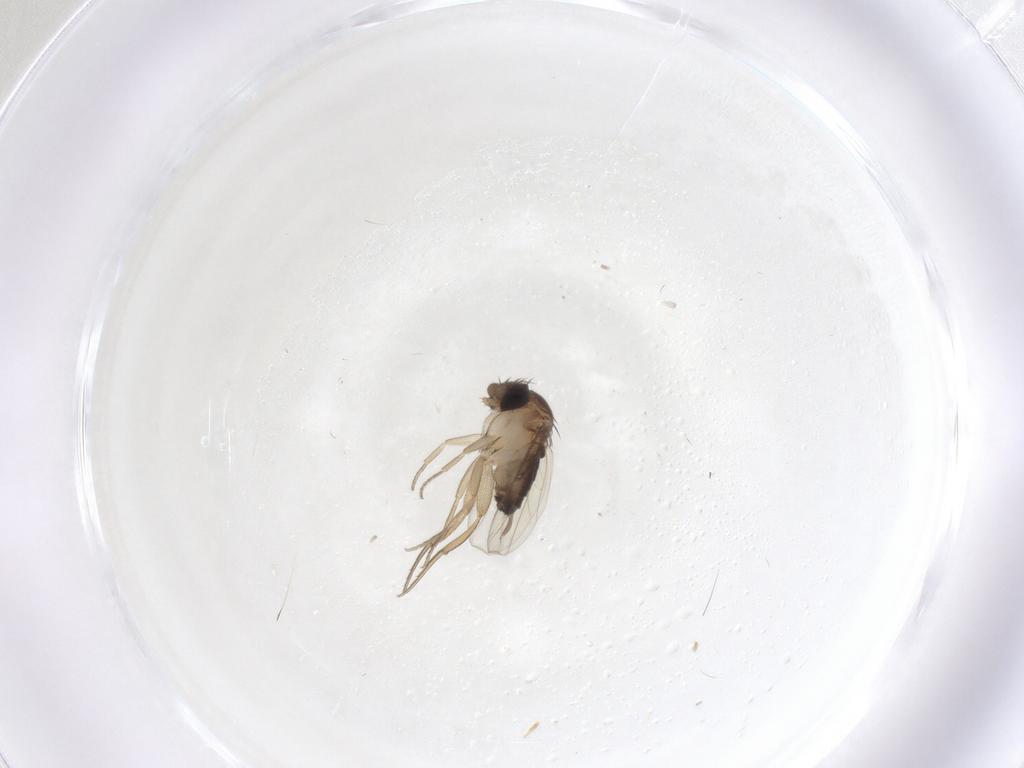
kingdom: Animalia
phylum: Arthropoda
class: Insecta
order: Diptera
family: Phoridae
